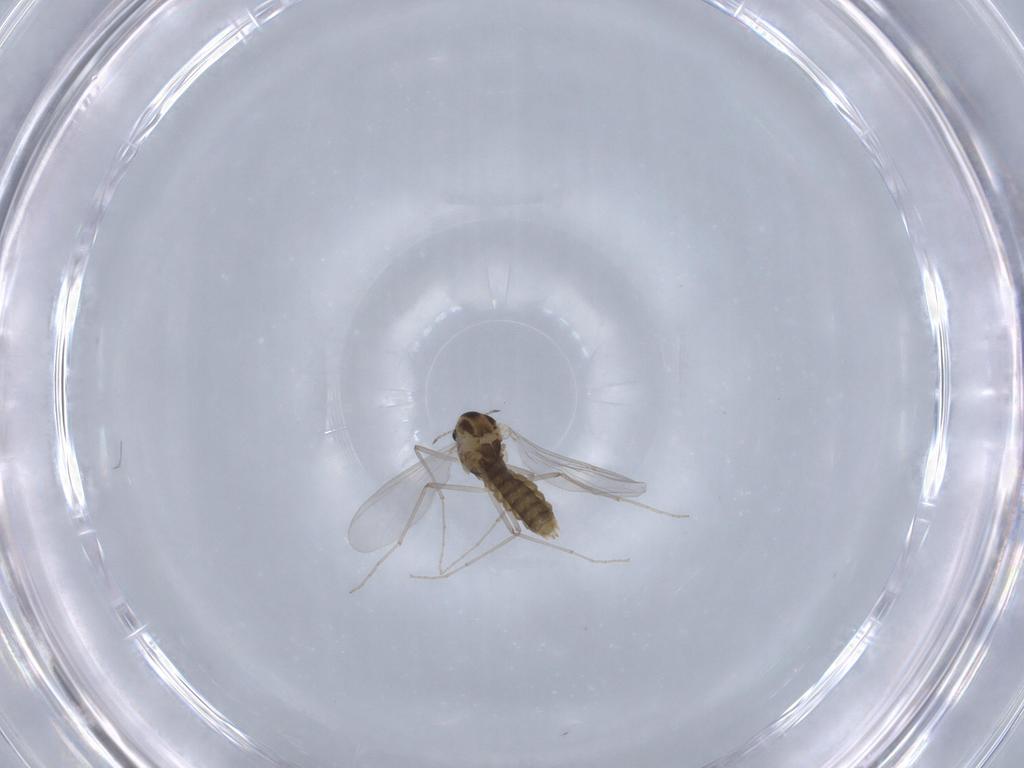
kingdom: Animalia
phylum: Arthropoda
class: Insecta
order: Diptera
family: Chironomidae
